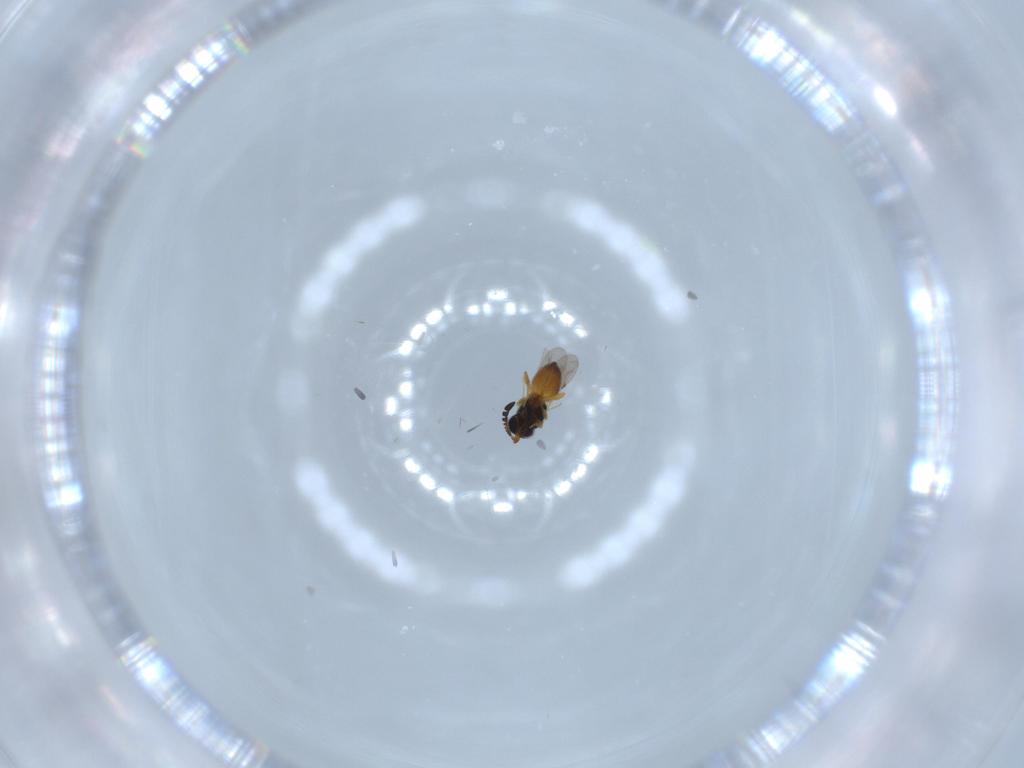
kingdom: Animalia
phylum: Arthropoda
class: Insecta
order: Hymenoptera
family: Ceraphronidae
